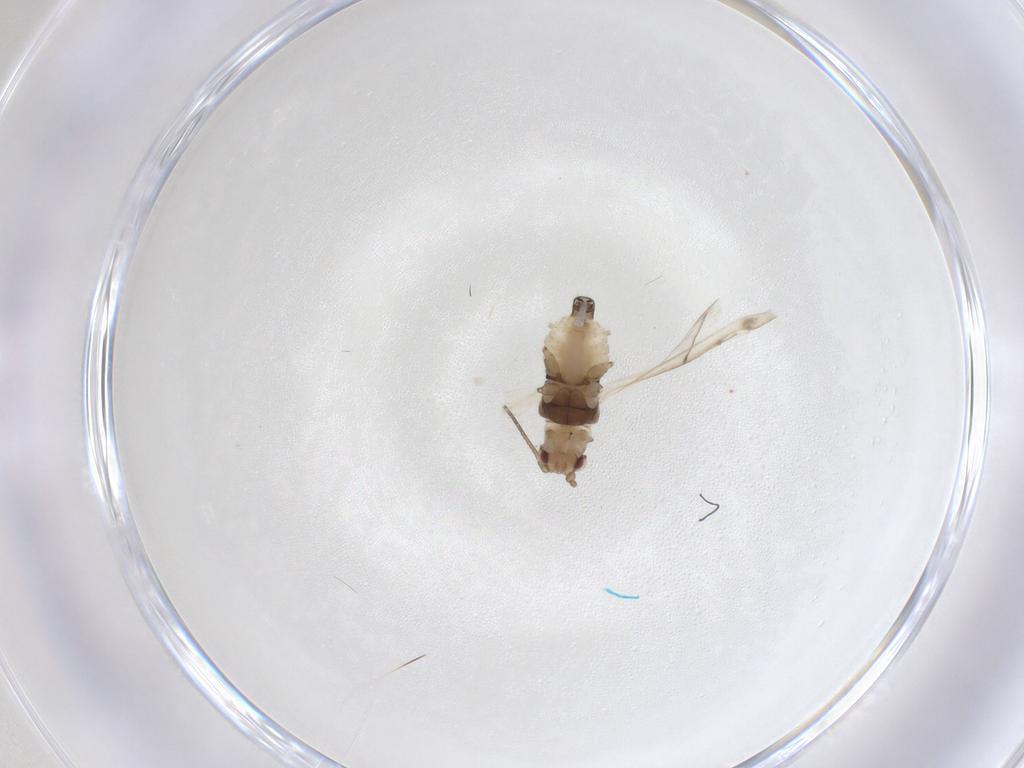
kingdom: Animalia
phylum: Arthropoda
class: Insecta
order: Hemiptera
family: Aphididae
